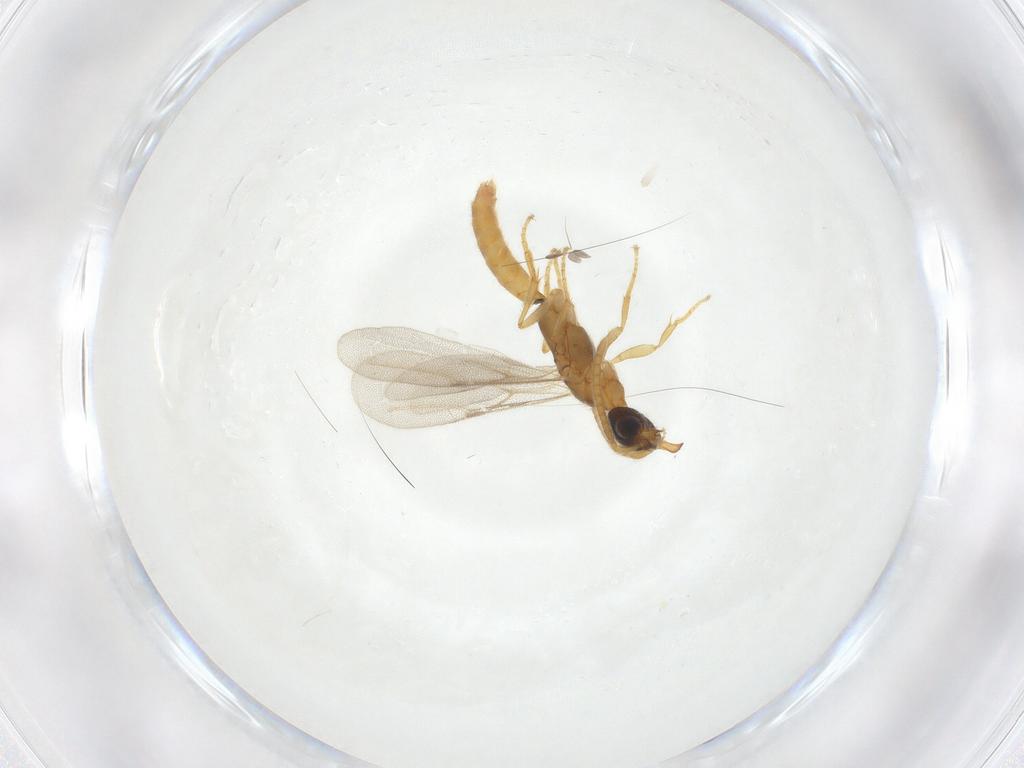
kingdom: Animalia
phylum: Arthropoda
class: Insecta
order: Hymenoptera
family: Bethylidae
